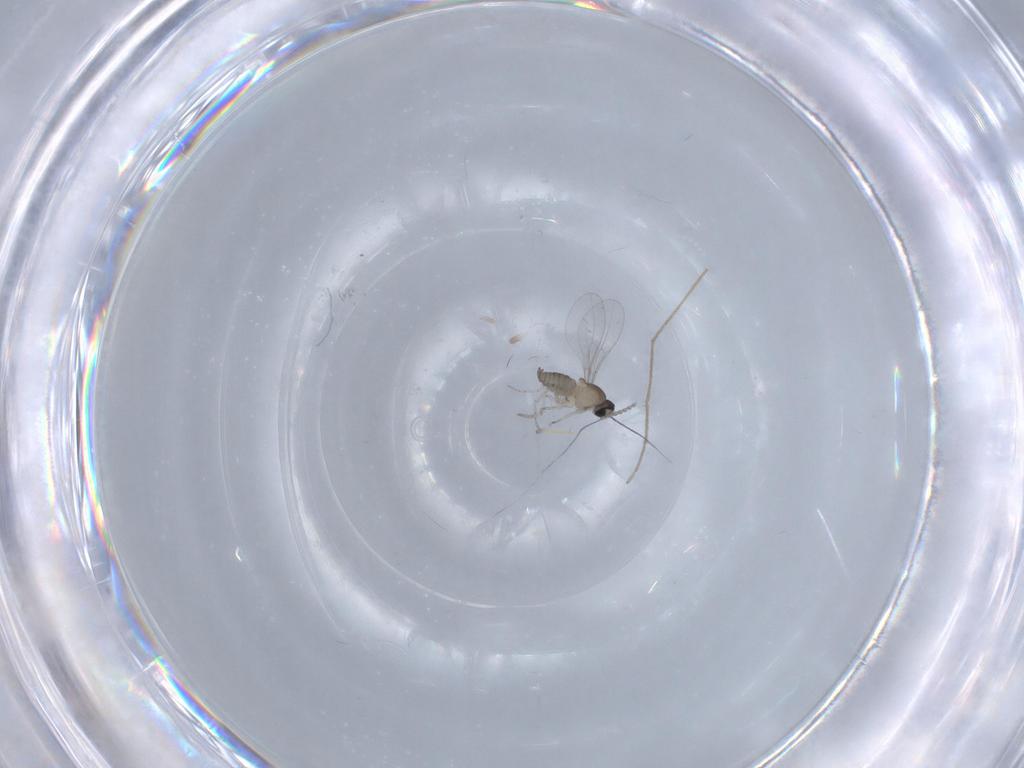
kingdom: Animalia
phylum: Arthropoda
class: Insecta
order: Diptera
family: Cecidomyiidae
